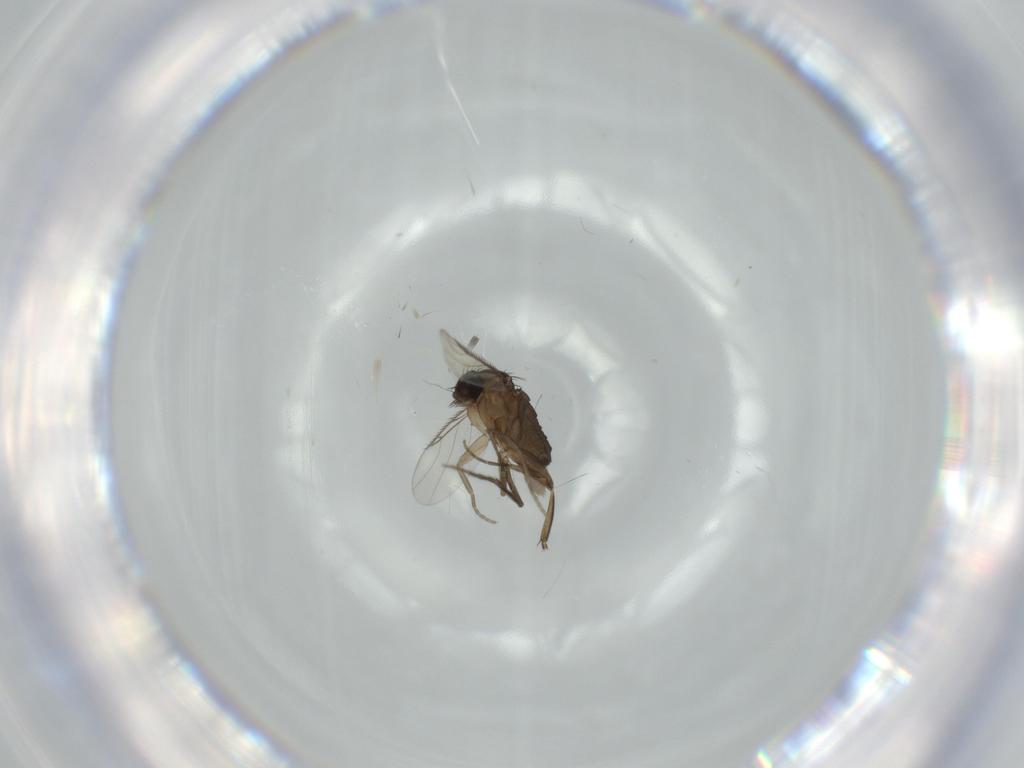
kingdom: Animalia
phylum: Arthropoda
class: Insecta
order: Diptera
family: Phoridae
